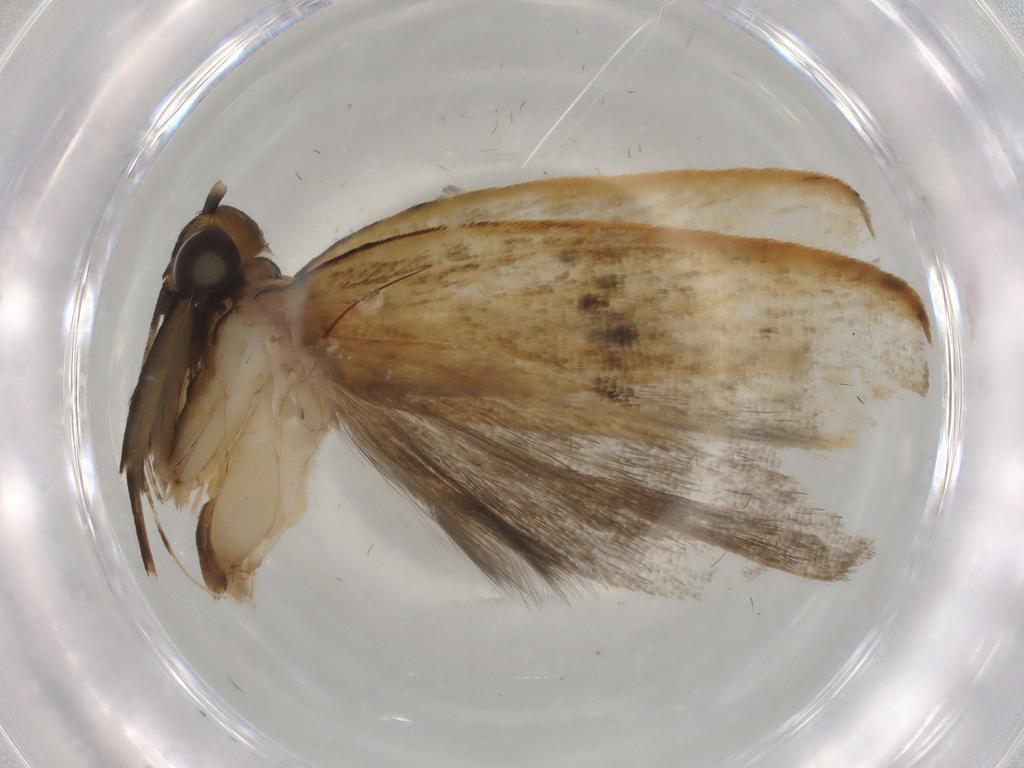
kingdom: Animalia
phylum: Arthropoda
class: Insecta
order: Lepidoptera
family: Gelechiidae
